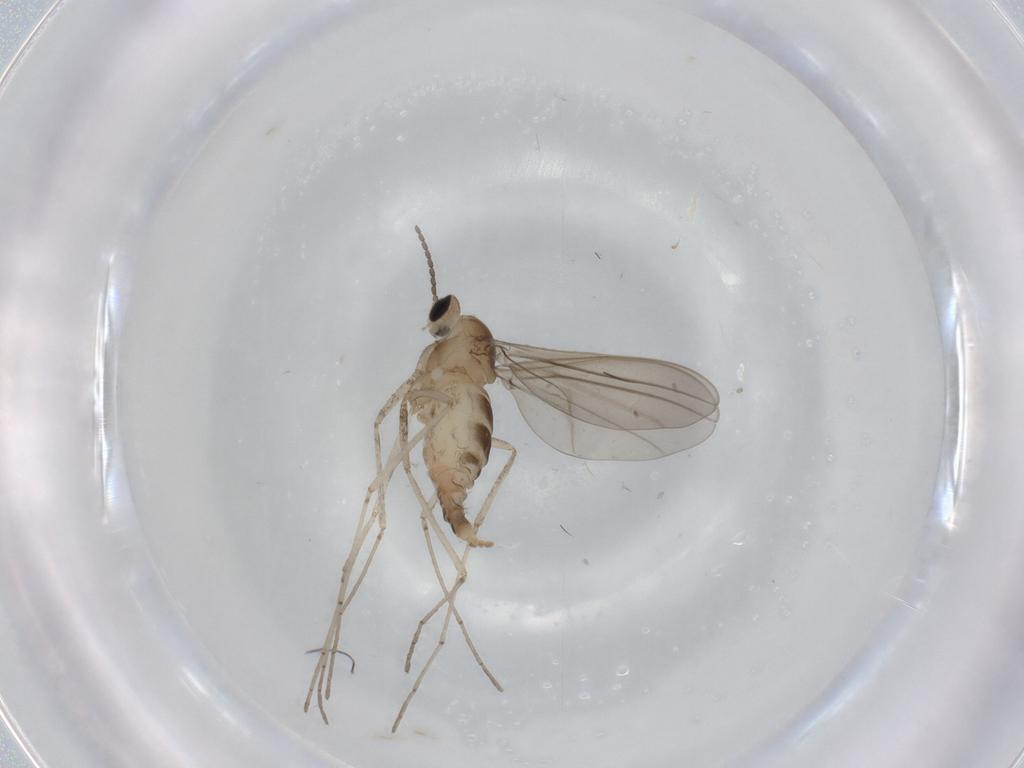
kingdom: Animalia
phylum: Arthropoda
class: Insecta
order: Diptera
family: Cecidomyiidae
